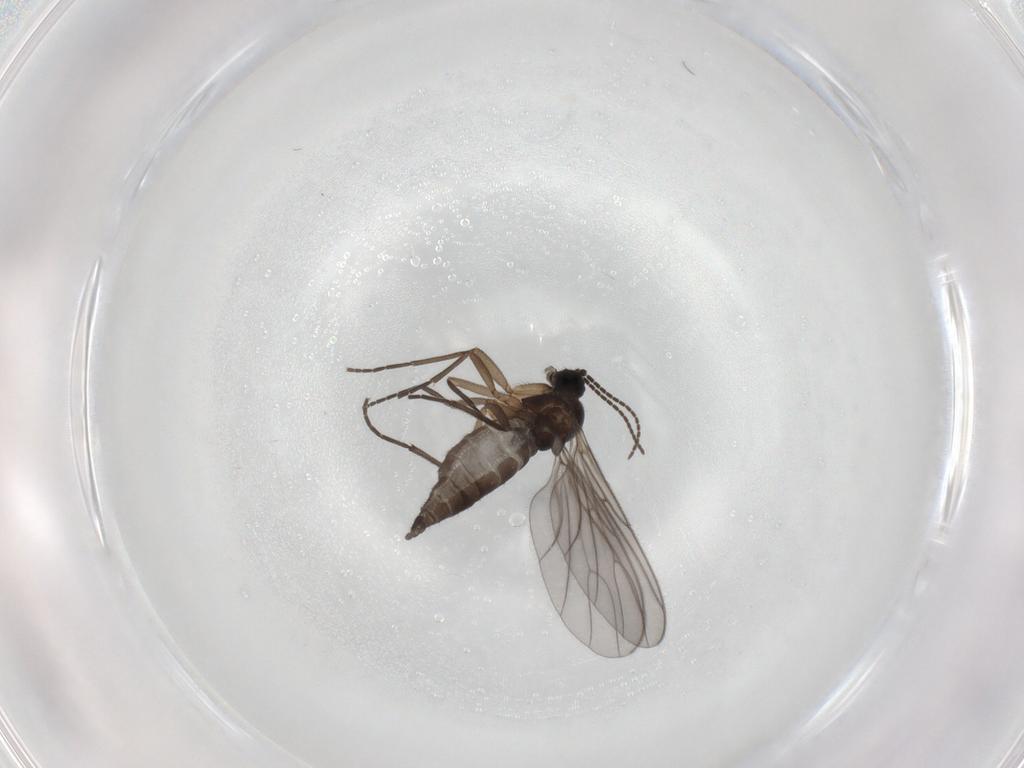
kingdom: Animalia
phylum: Arthropoda
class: Insecta
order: Diptera
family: Sciaridae
